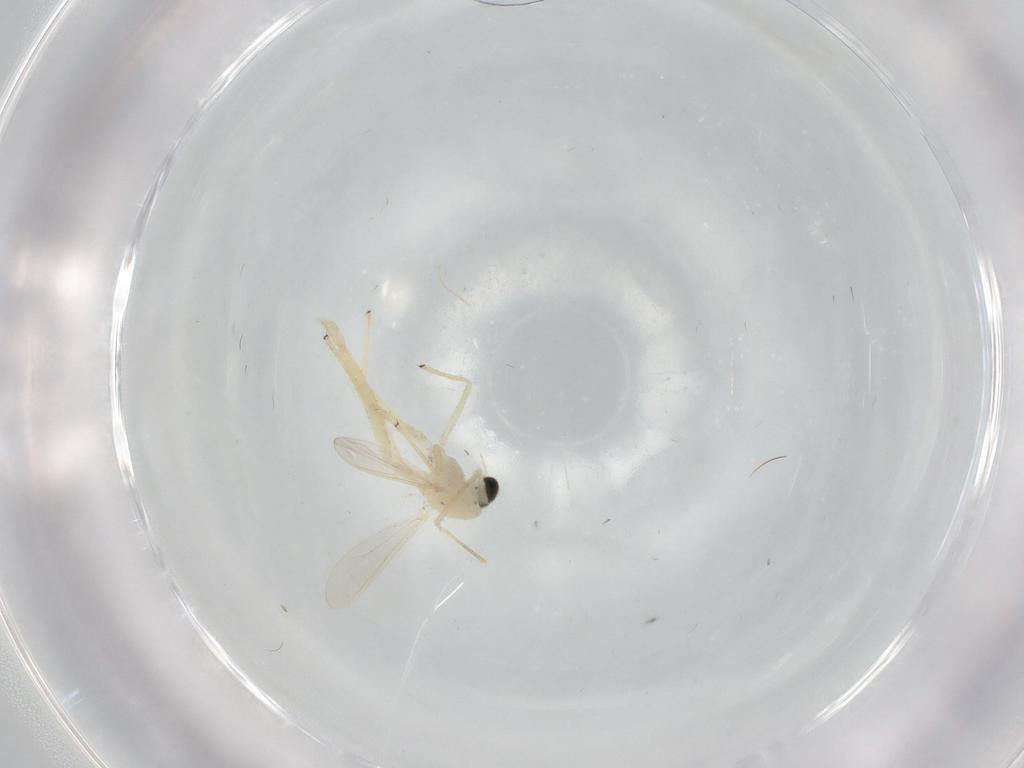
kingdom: Animalia
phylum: Arthropoda
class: Insecta
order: Diptera
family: Chironomidae
